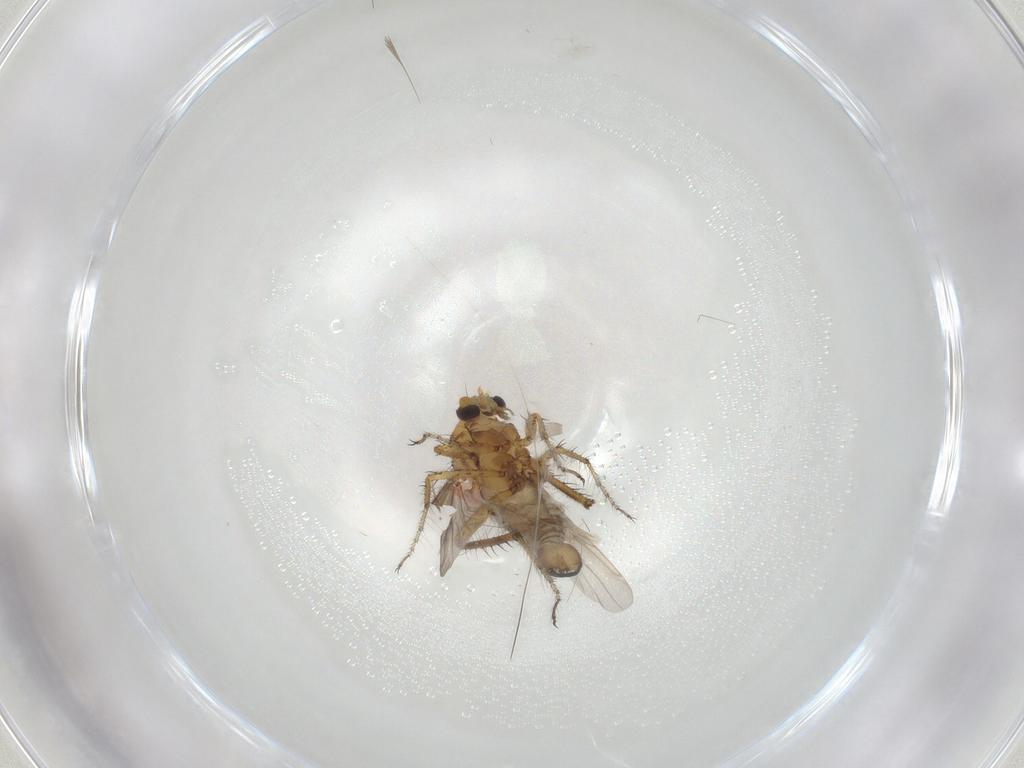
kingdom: Animalia
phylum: Arthropoda
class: Insecta
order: Diptera
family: Ceratopogonidae
